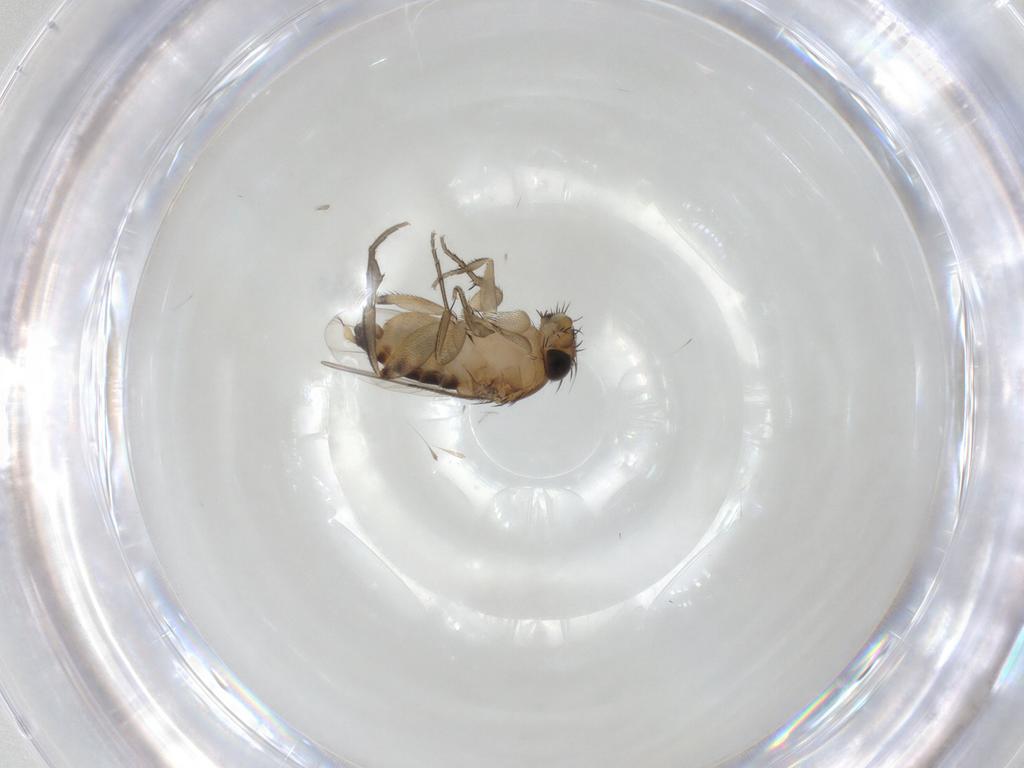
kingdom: Animalia
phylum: Arthropoda
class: Insecta
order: Diptera
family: Phoridae
